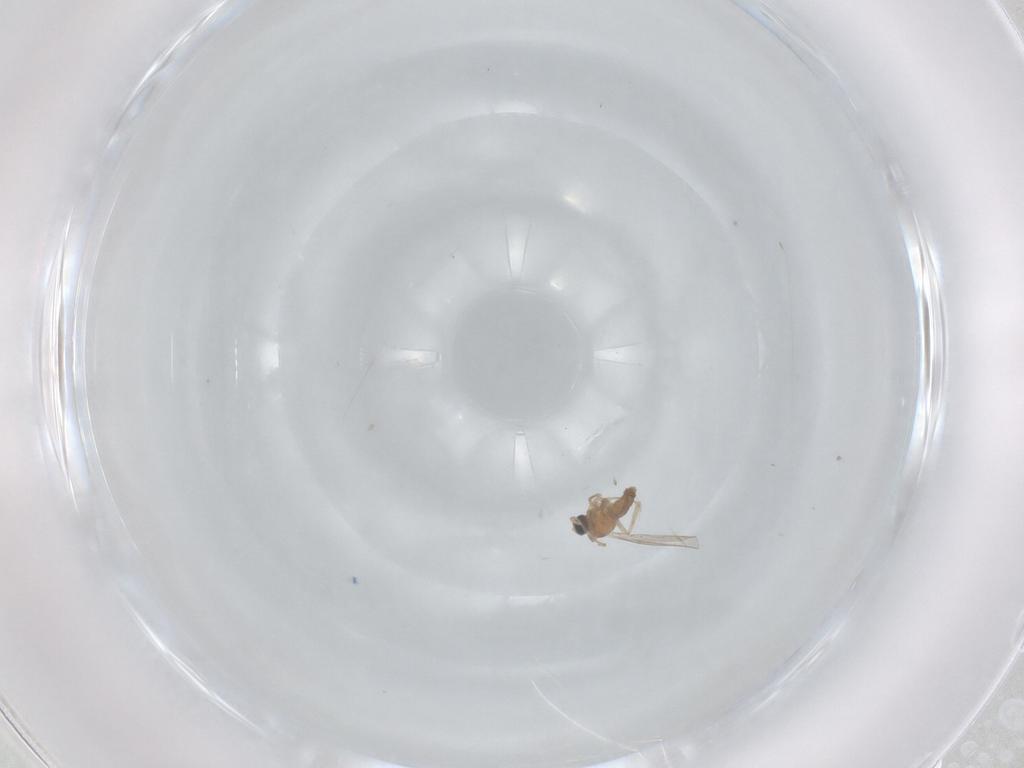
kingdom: Animalia
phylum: Arthropoda
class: Insecta
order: Diptera
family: Cecidomyiidae
